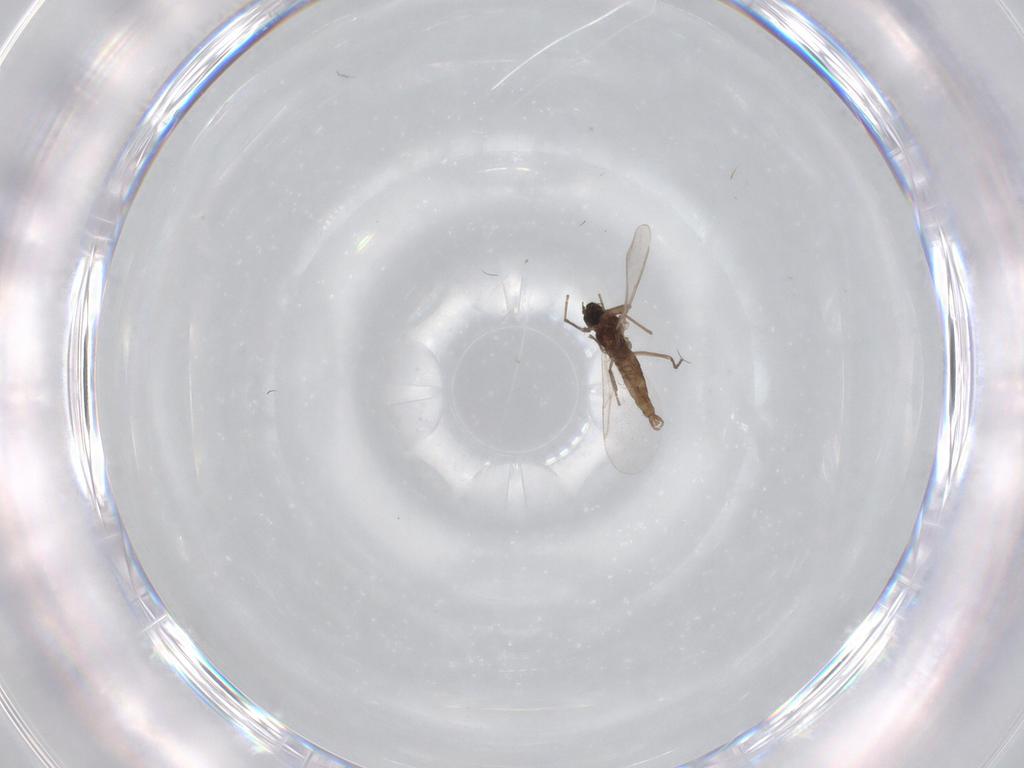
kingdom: Animalia
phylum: Arthropoda
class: Insecta
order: Diptera
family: Cecidomyiidae
